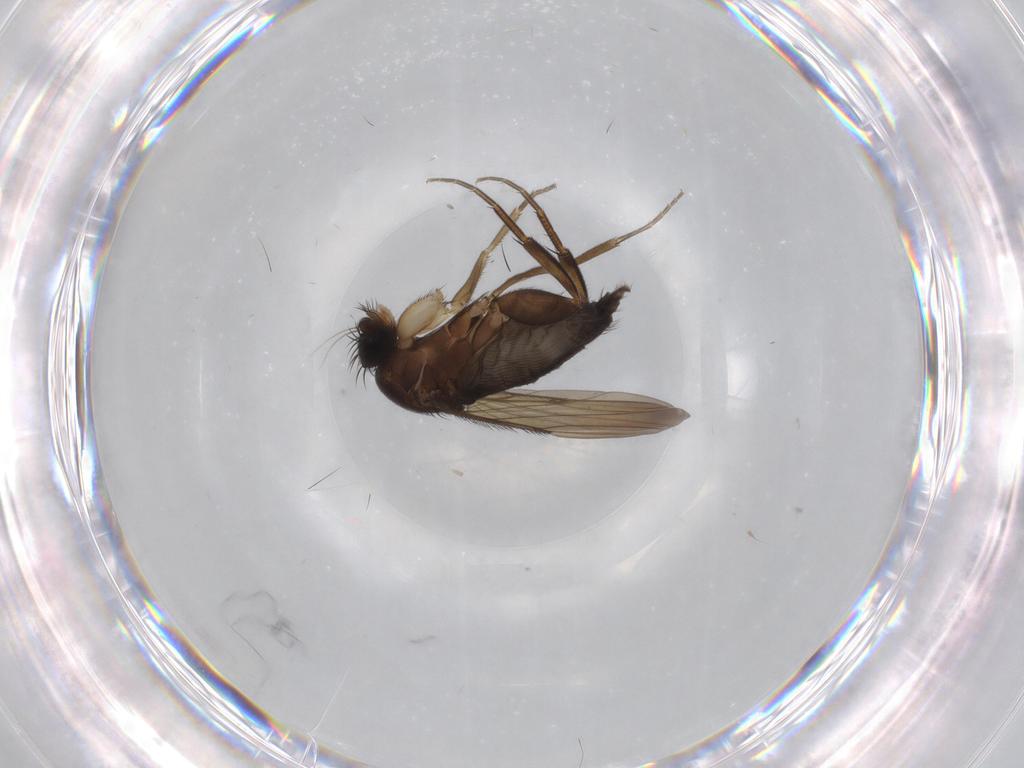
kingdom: Animalia
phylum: Arthropoda
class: Insecta
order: Diptera
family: Phoridae
